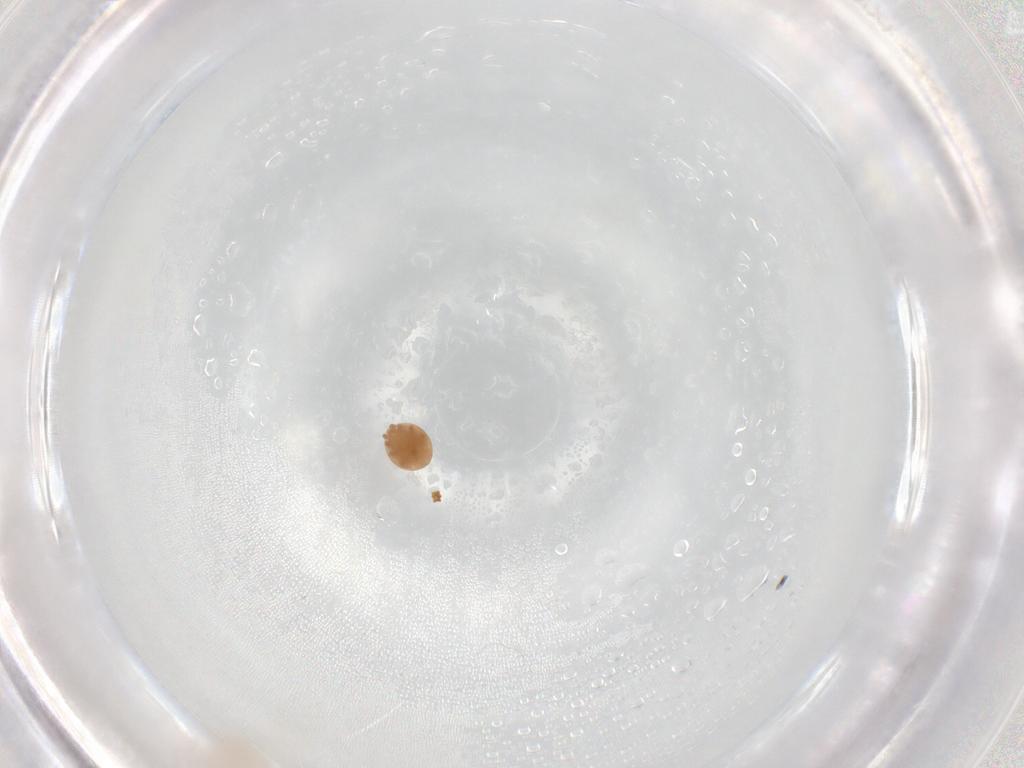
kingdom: Animalia
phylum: Arthropoda
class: Arachnida
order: Mesostigmata
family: Trematuridae
